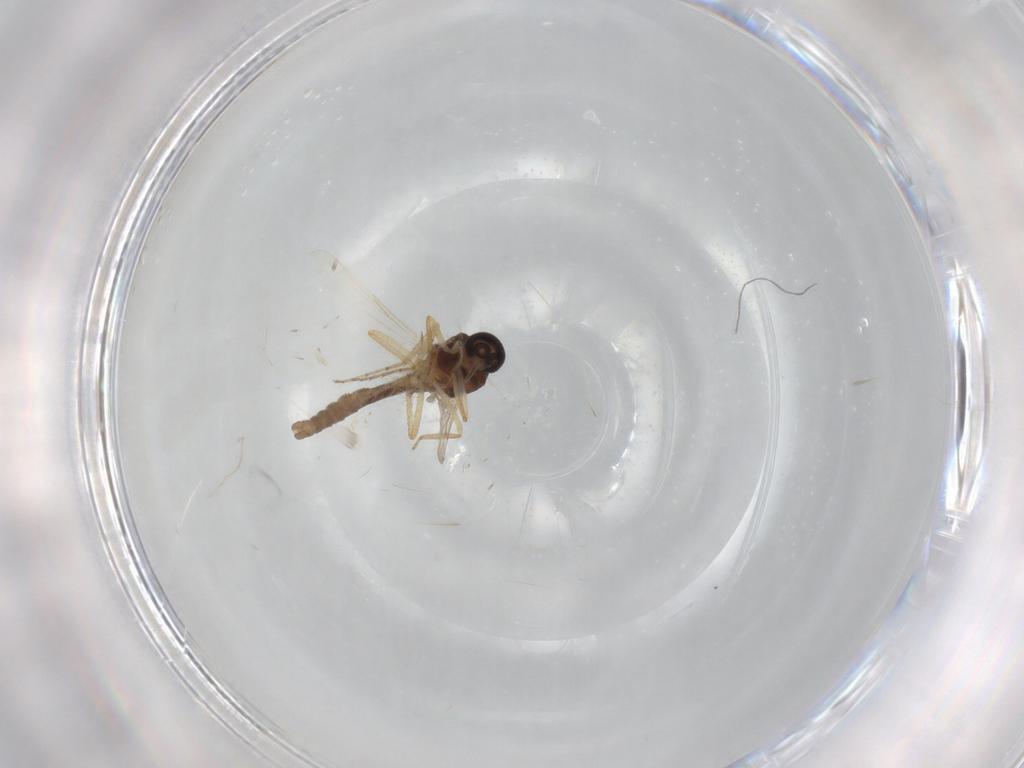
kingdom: Animalia
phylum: Arthropoda
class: Insecta
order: Diptera
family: Ceratopogonidae
